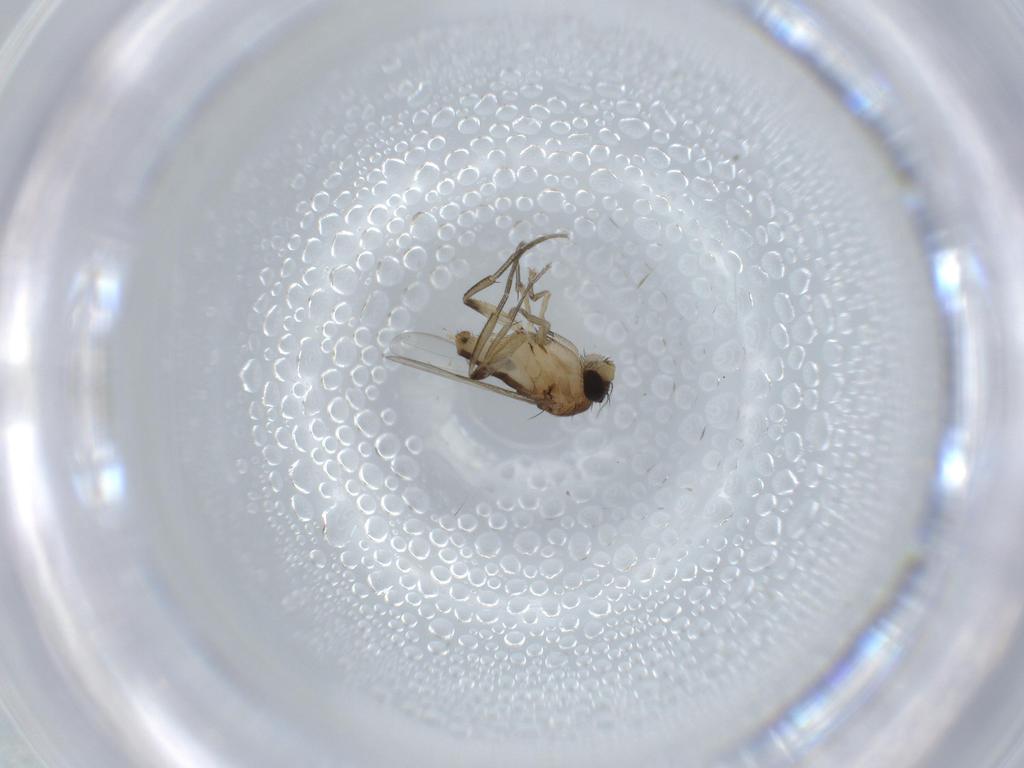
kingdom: Animalia
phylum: Arthropoda
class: Insecta
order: Diptera
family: Phoridae
